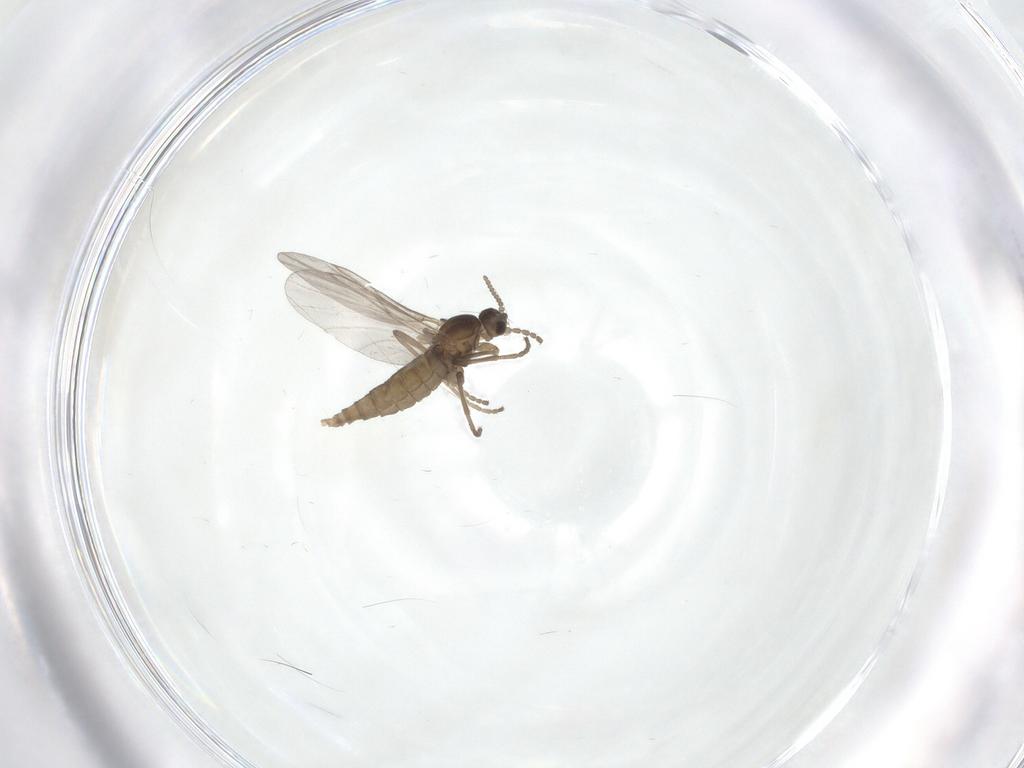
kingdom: Animalia
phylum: Arthropoda
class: Insecta
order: Diptera
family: Cecidomyiidae
